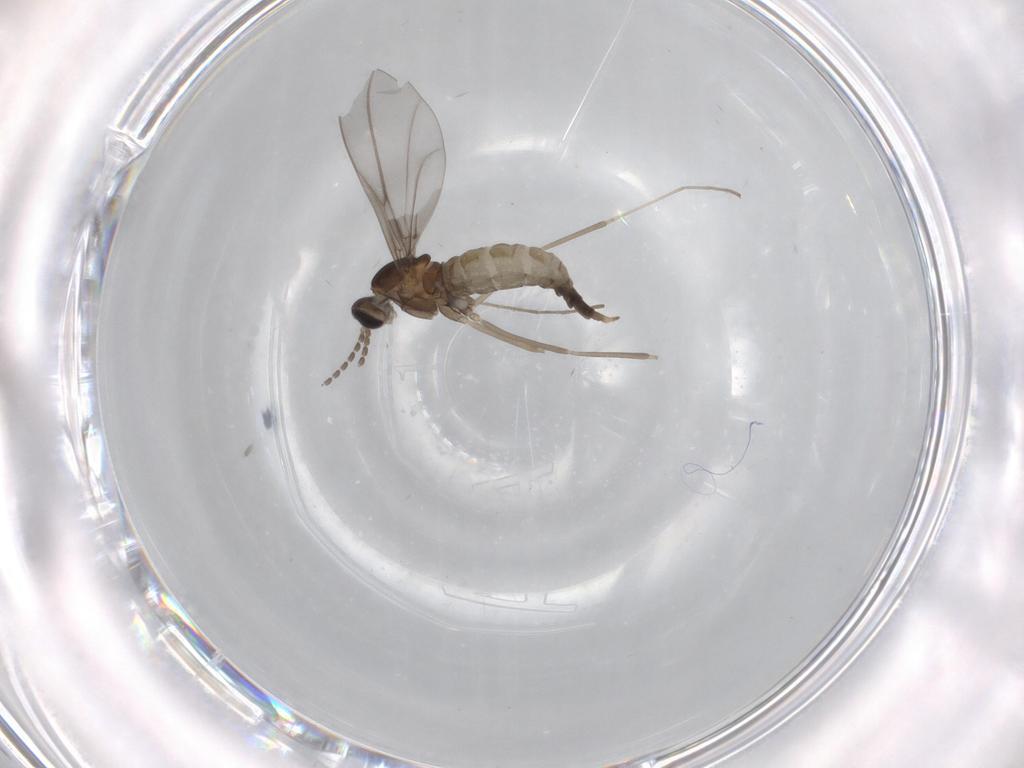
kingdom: Animalia
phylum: Arthropoda
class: Insecta
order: Diptera
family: Cecidomyiidae
